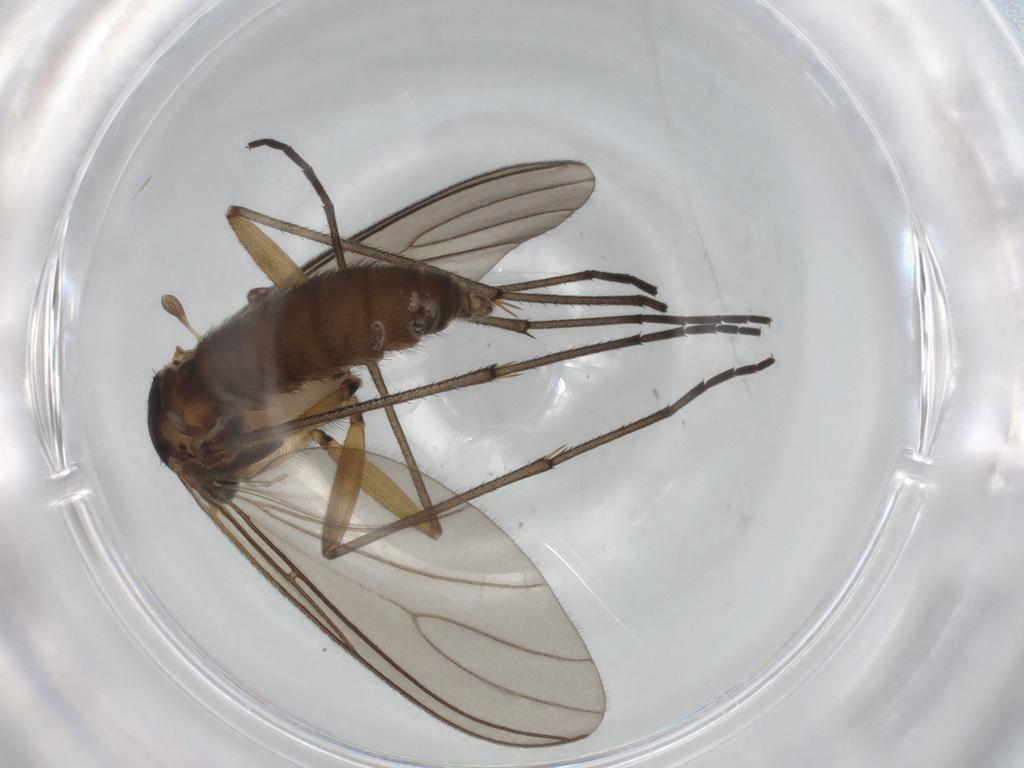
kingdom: Animalia
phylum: Arthropoda
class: Insecta
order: Diptera
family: Sciaridae
